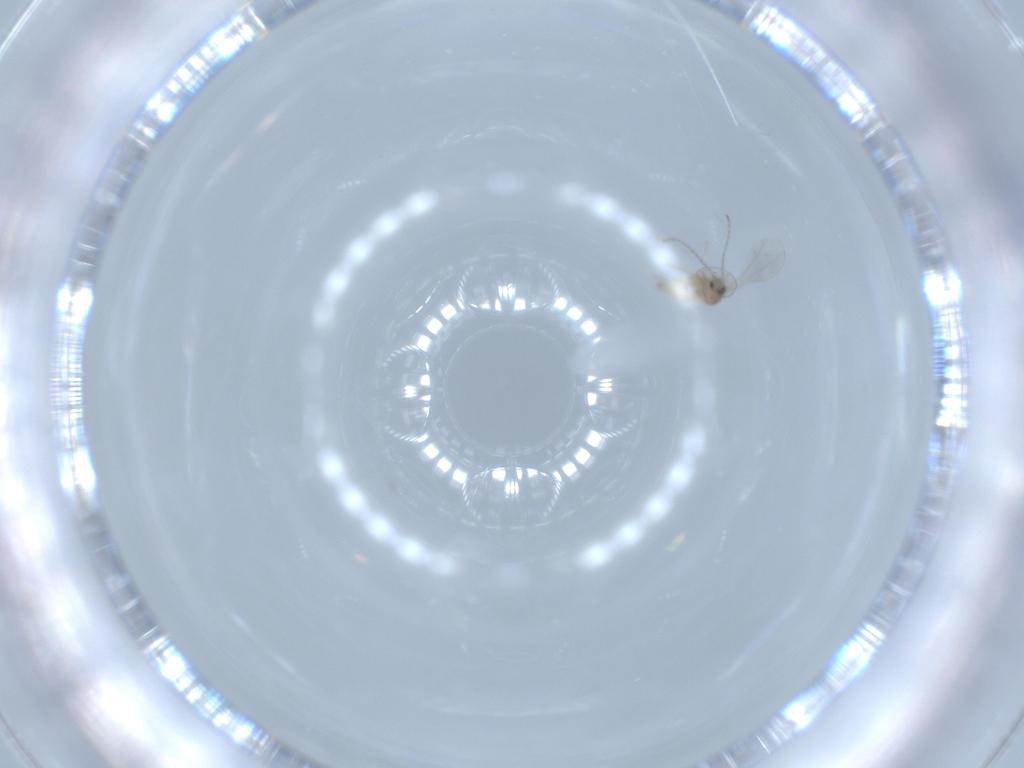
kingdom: Animalia
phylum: Arthropoda
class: Insecta
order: Diptera
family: Cecidomyiidae
